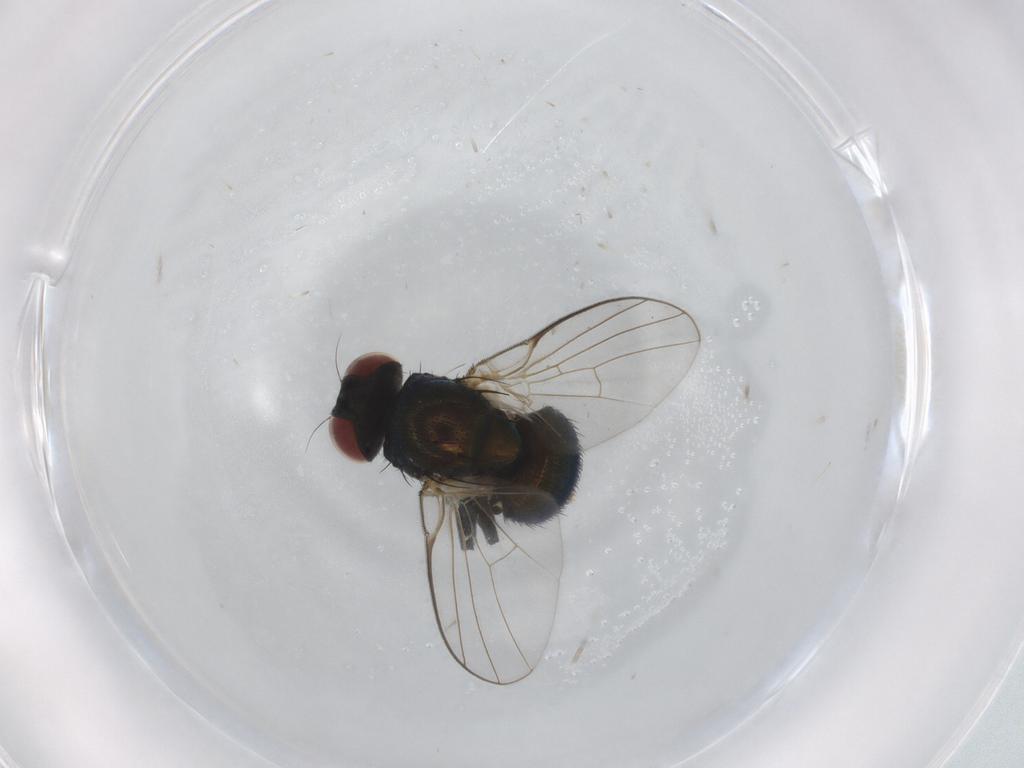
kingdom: Animalia
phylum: Arthropoda
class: Insecta
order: Diptera
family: Agromyzidae
